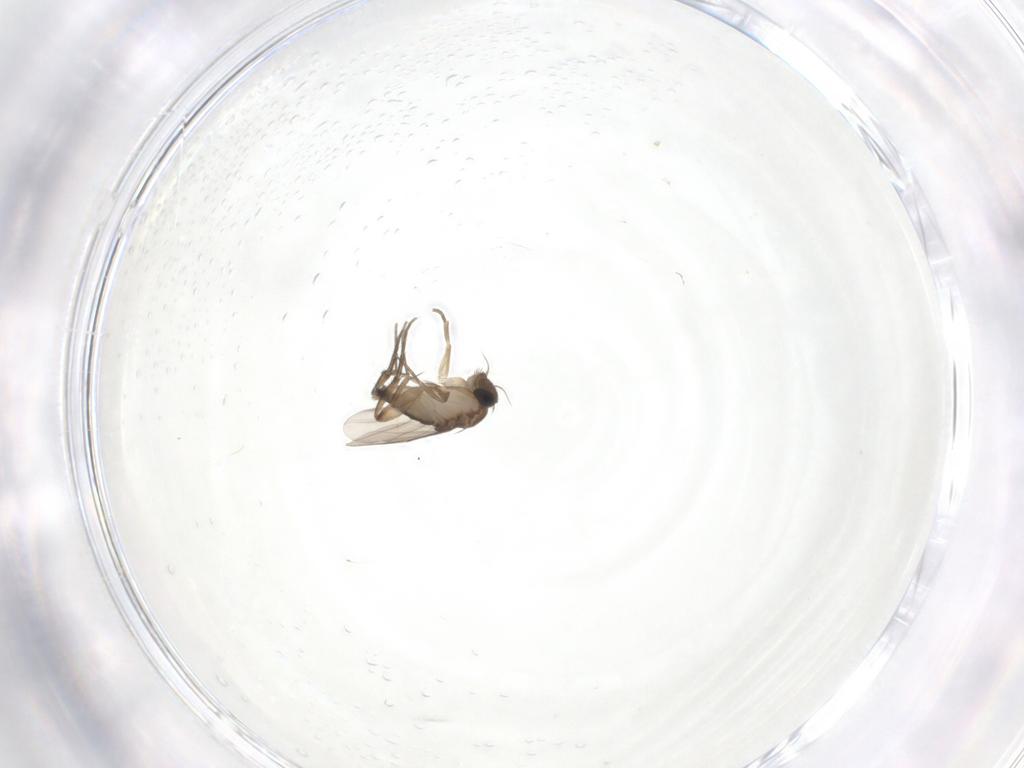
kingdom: Animalia
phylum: Arthropoda
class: Insecta
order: Diptera
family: Phoridae
